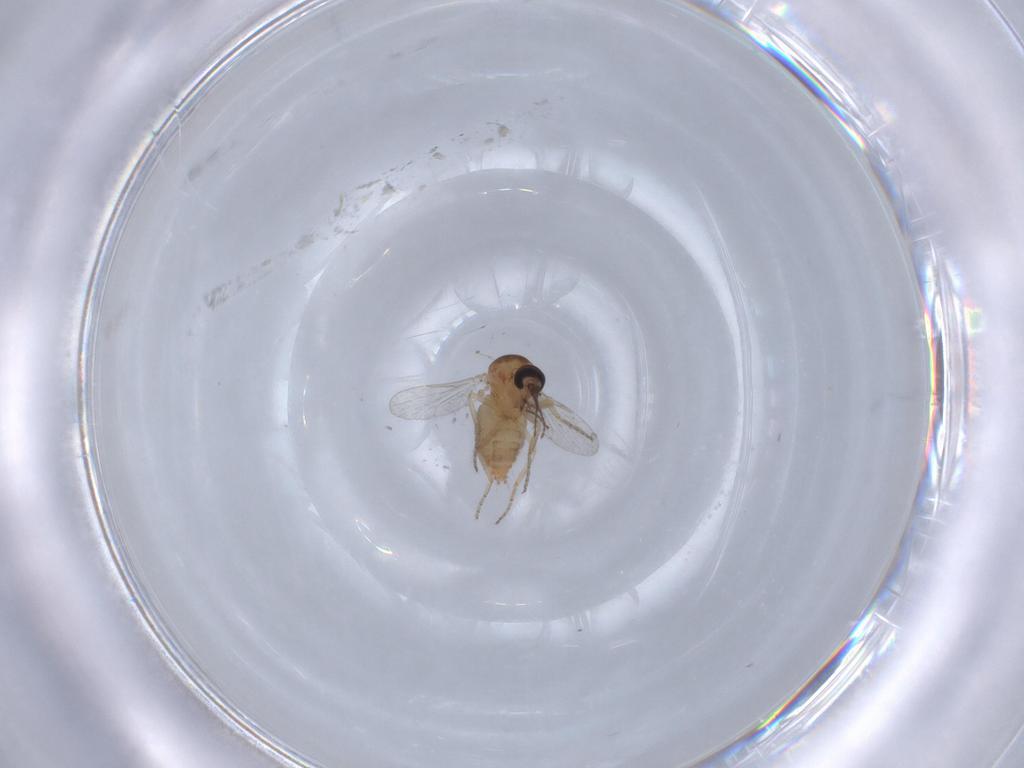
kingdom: Animalia
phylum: Arthropoda
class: Insecta
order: Diptera
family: Ceratopogonidae
